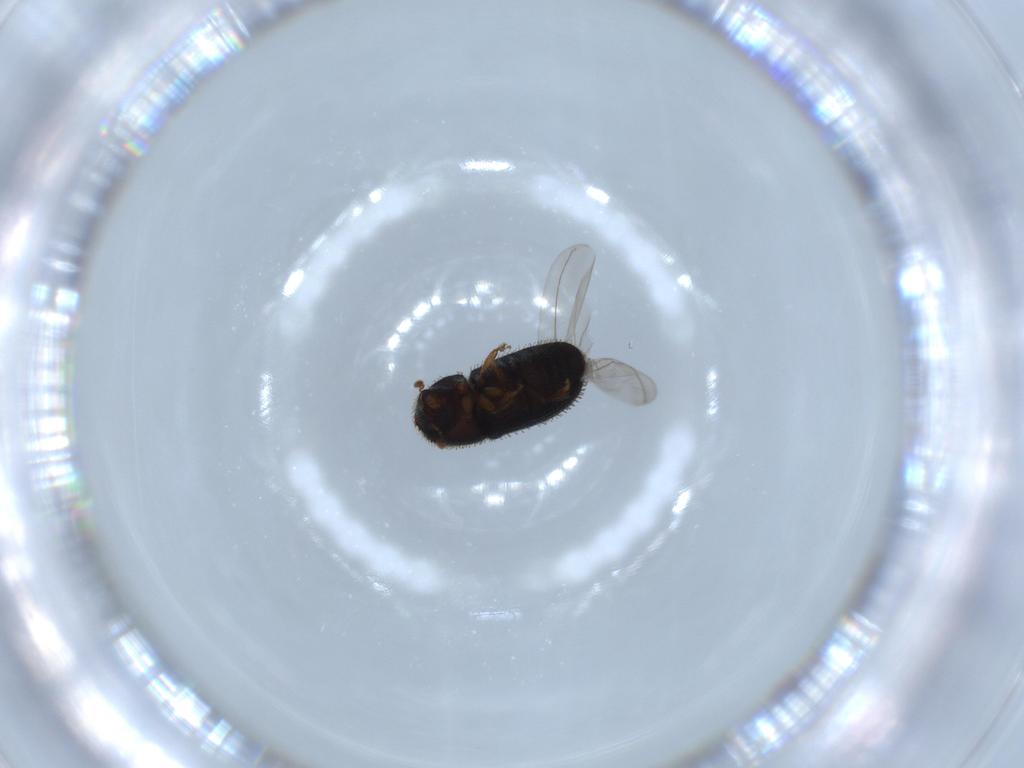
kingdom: Animalia
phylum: Arthropoda
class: Insecta
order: Coleoptera
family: Curculionidae
